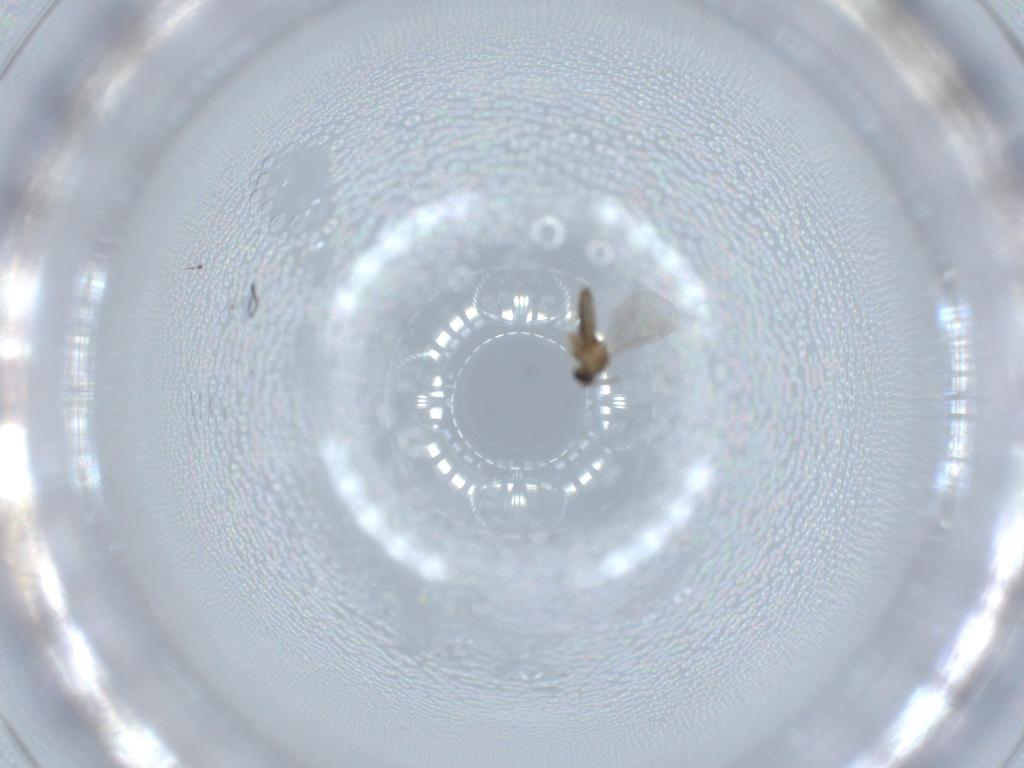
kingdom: Animalia
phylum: Arthropoda
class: Insecta
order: Diptera
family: Cecidomyiidae
